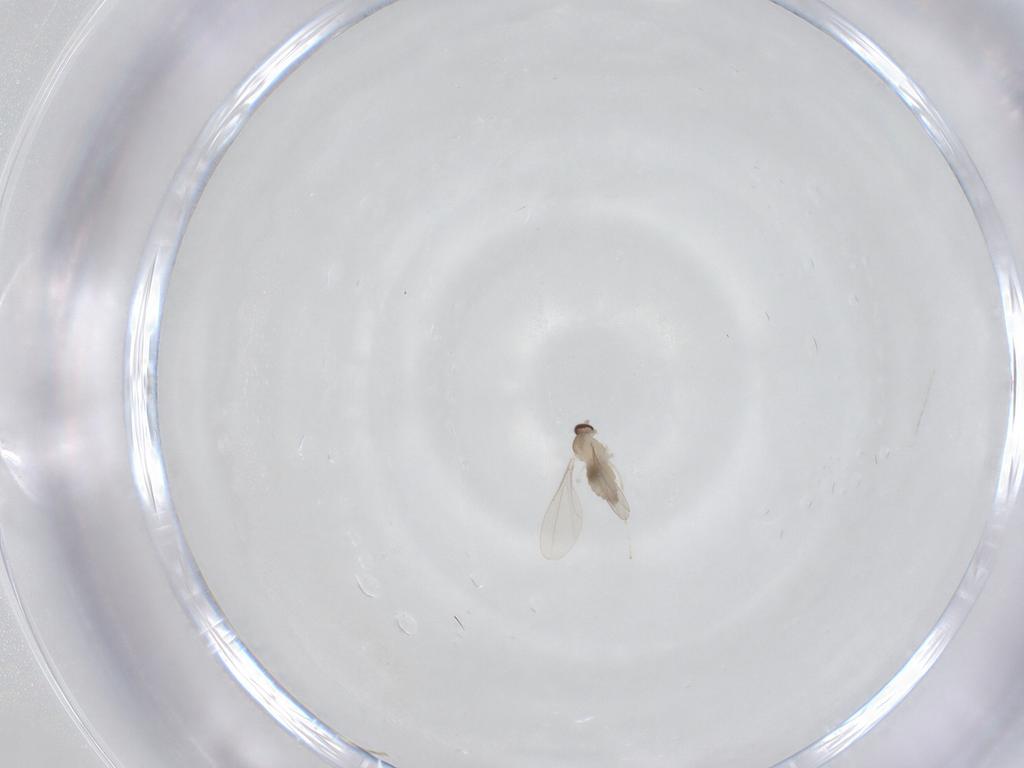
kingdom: Animalia
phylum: Arthropoda
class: Insecta
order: Diptera
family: Cecidomyiidae
